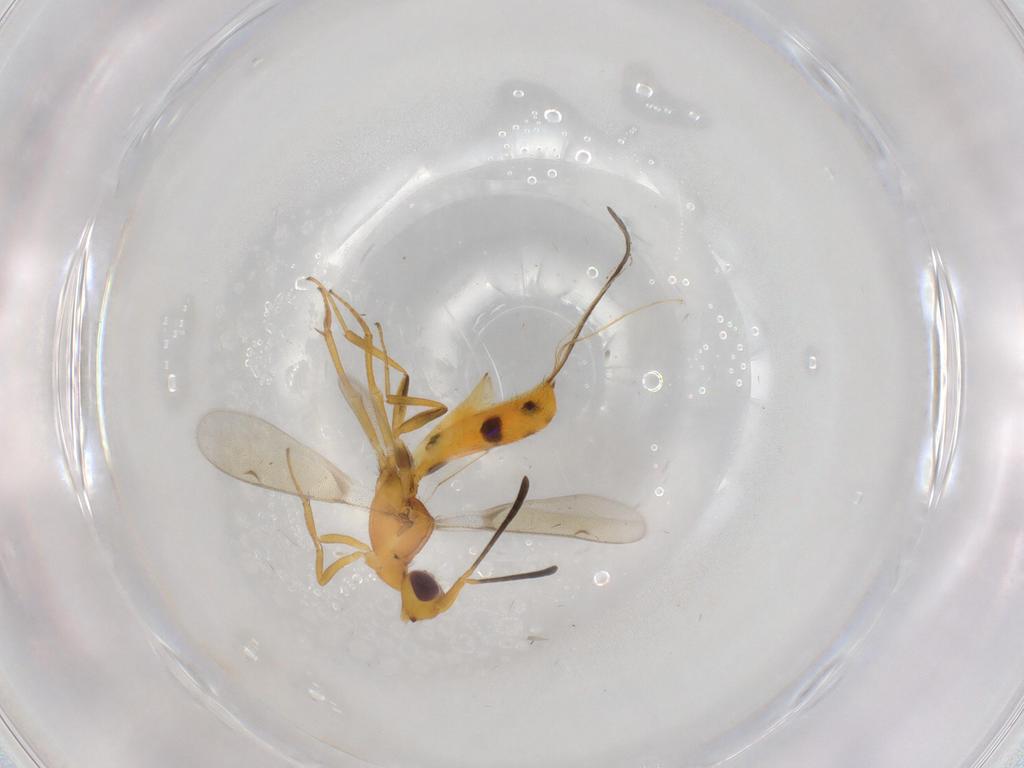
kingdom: Animalia
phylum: Arthropoda
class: Insecta
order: Hymenoptera
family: Eupelmidae
